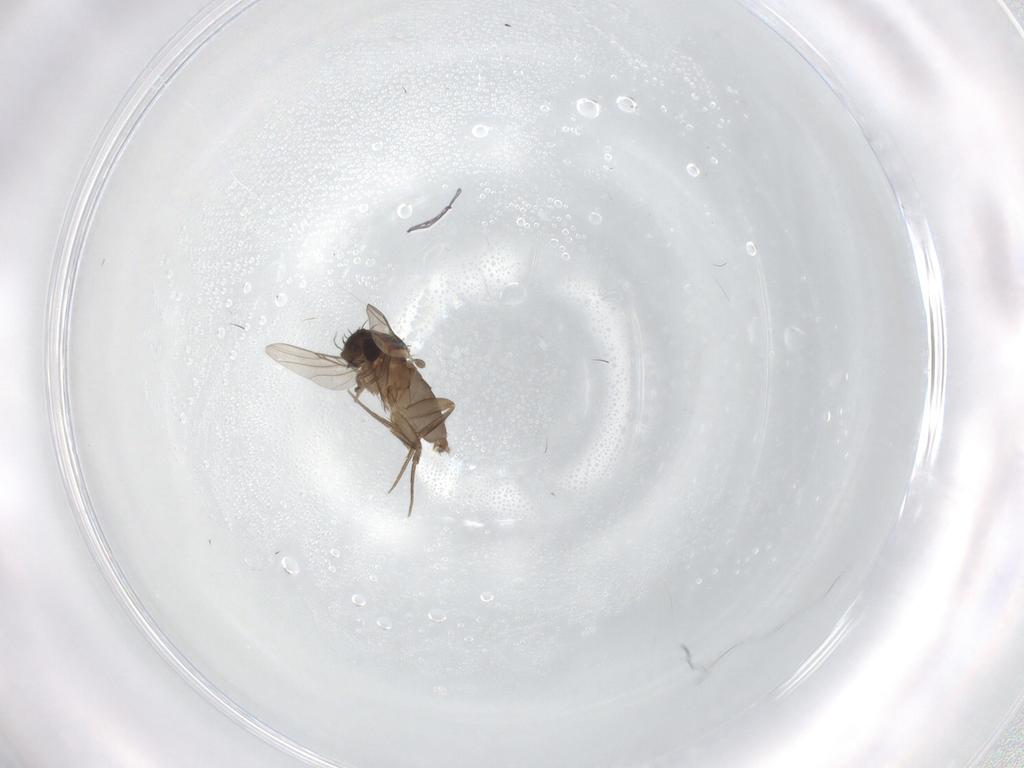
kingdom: Animalia
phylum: Arthropoda
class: Insecta
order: Diptera
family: Phoridae
